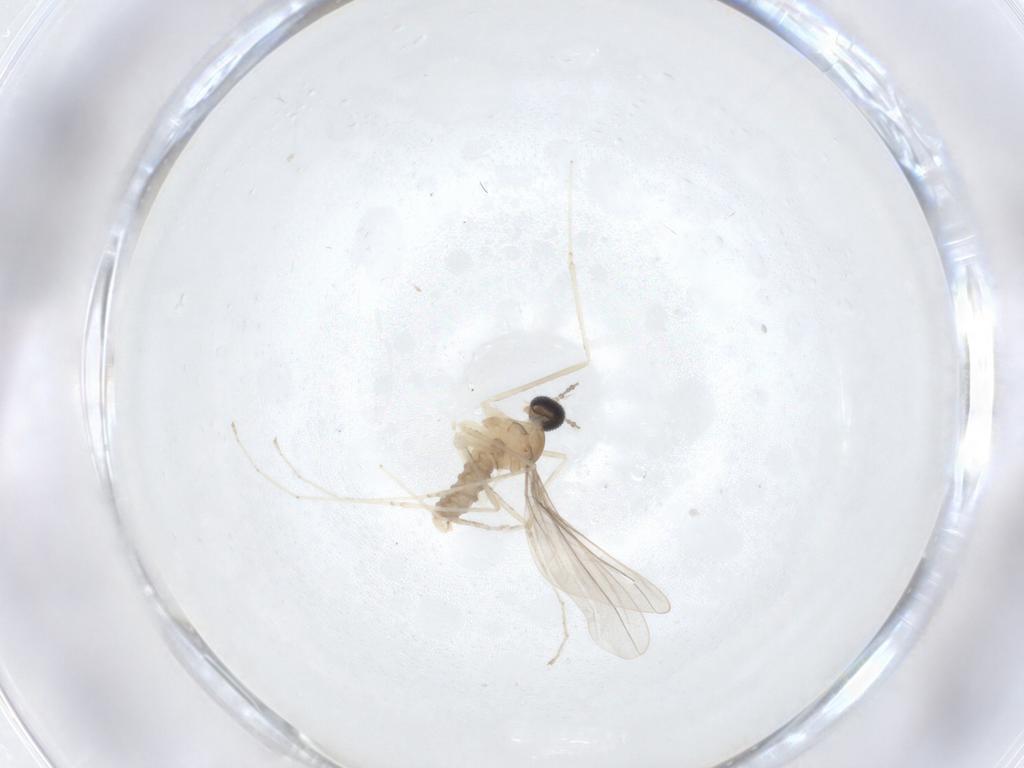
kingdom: Animalia
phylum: Arthropoda
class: Insecta
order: Diptera
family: Cecidomyiidae
